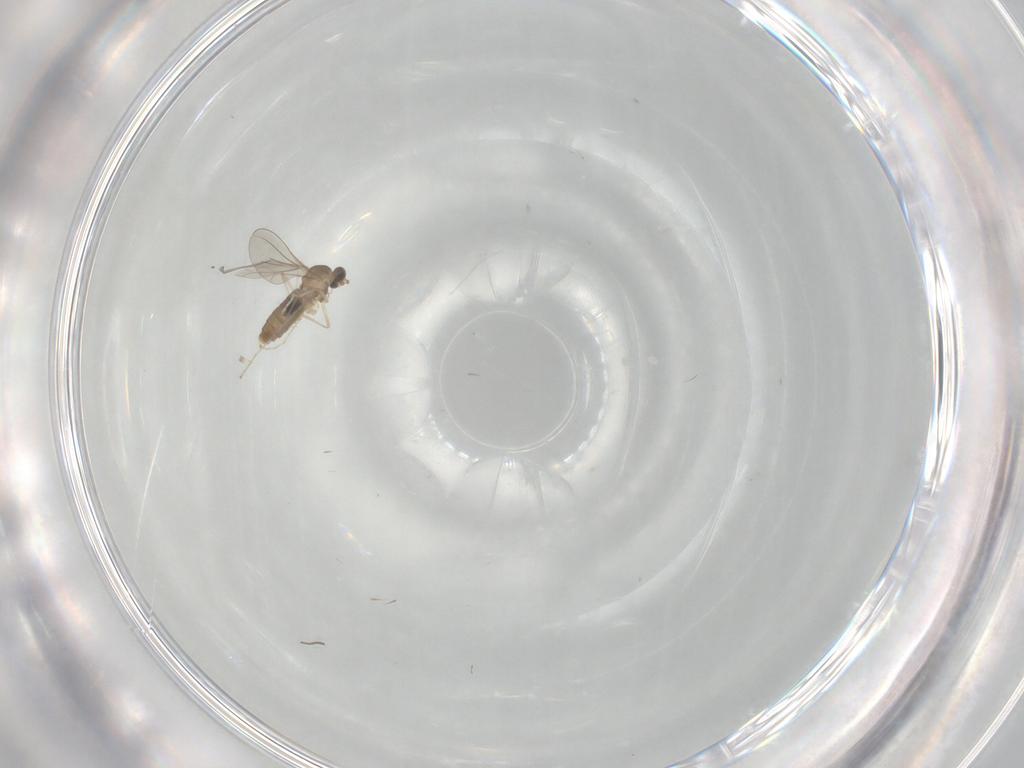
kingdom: Animalia
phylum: Arthropoda
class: Insecta
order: Diptera
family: Cecidomyiidae
